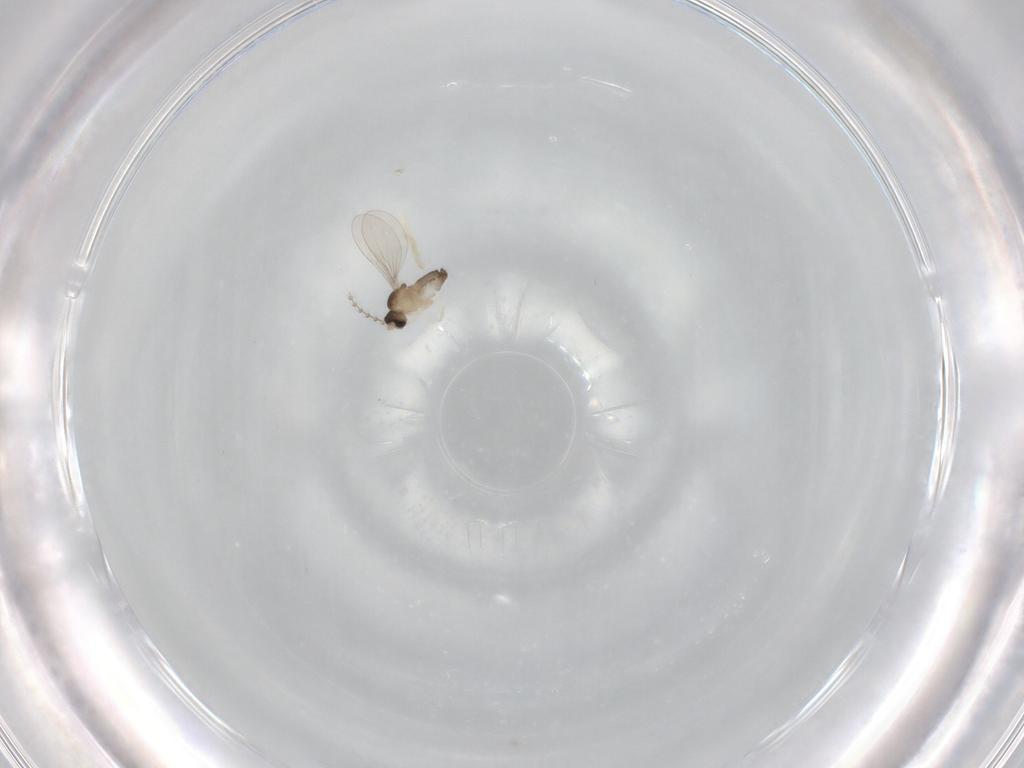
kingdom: Animalia
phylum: Arthropoda
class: Insecta
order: Diptera
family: Cecidomyiidae
